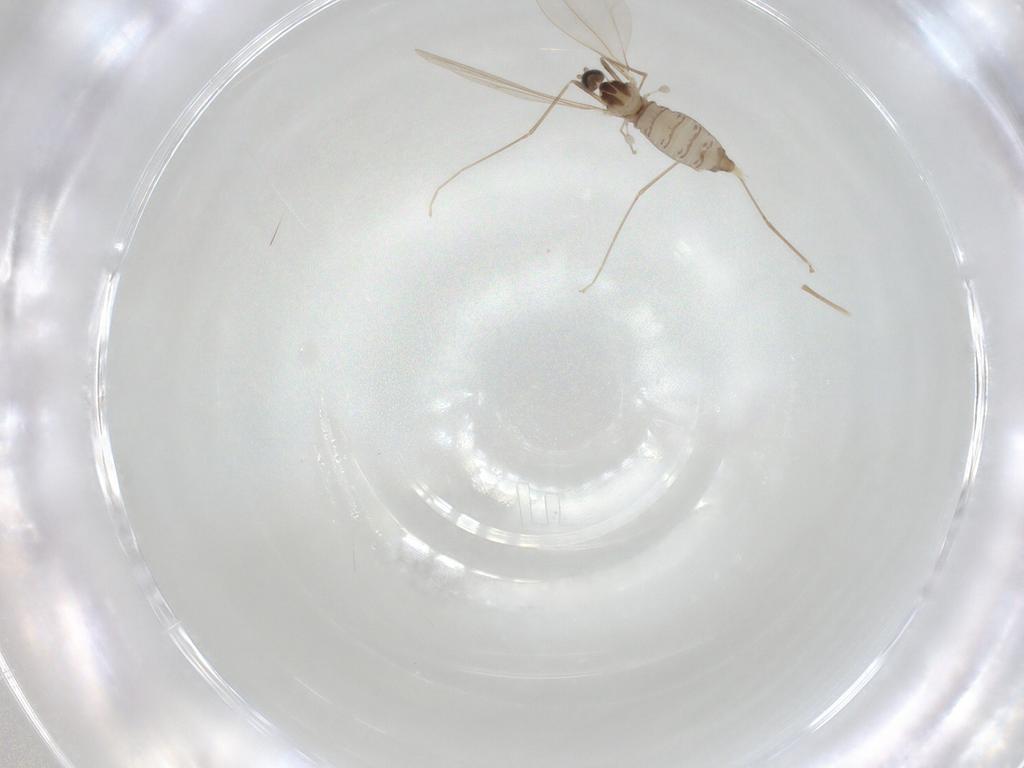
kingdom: Animalia
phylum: Arthropoda
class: Insecta
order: Diptera
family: Cecidomyiidae
